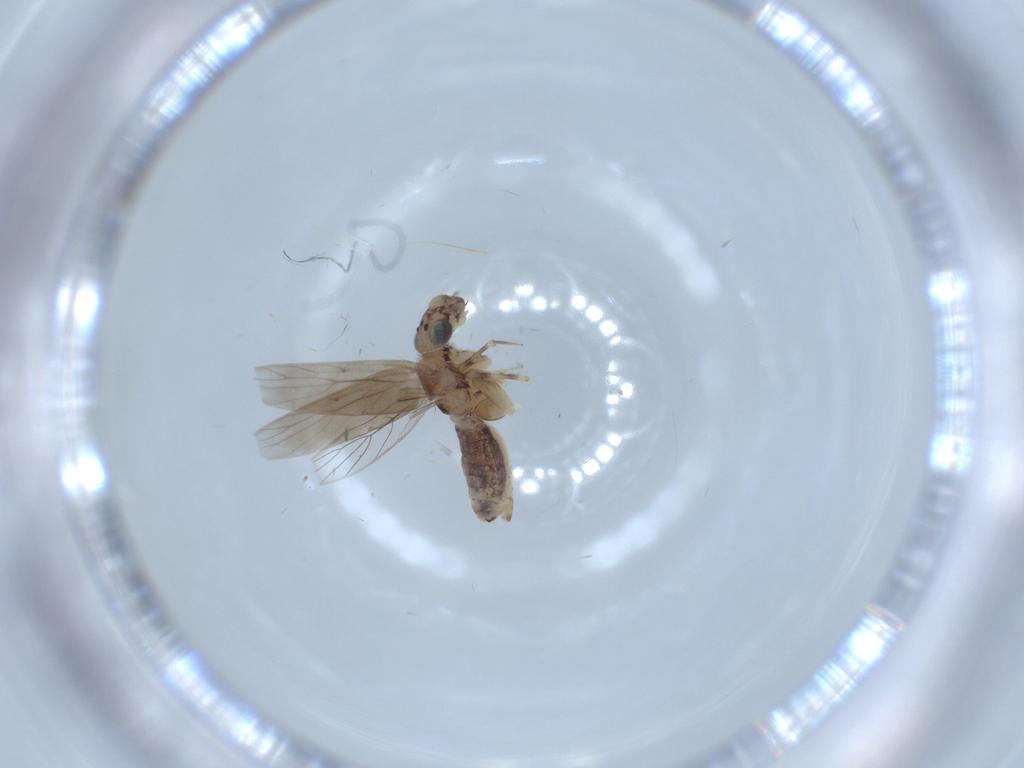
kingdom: Animalia
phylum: Arthropoda
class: Insecta
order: Psocodea
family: Lepidopsocidae
